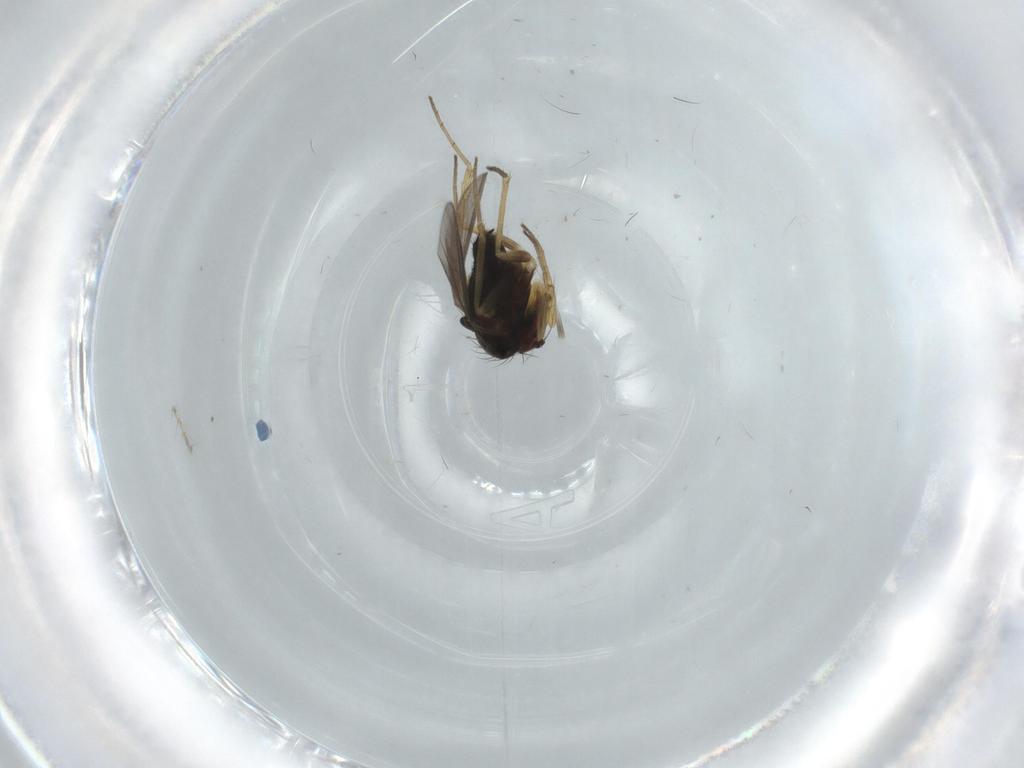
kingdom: Animalia
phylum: Arthropoda
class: Insecta
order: Diptera
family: Dolichopodidae
